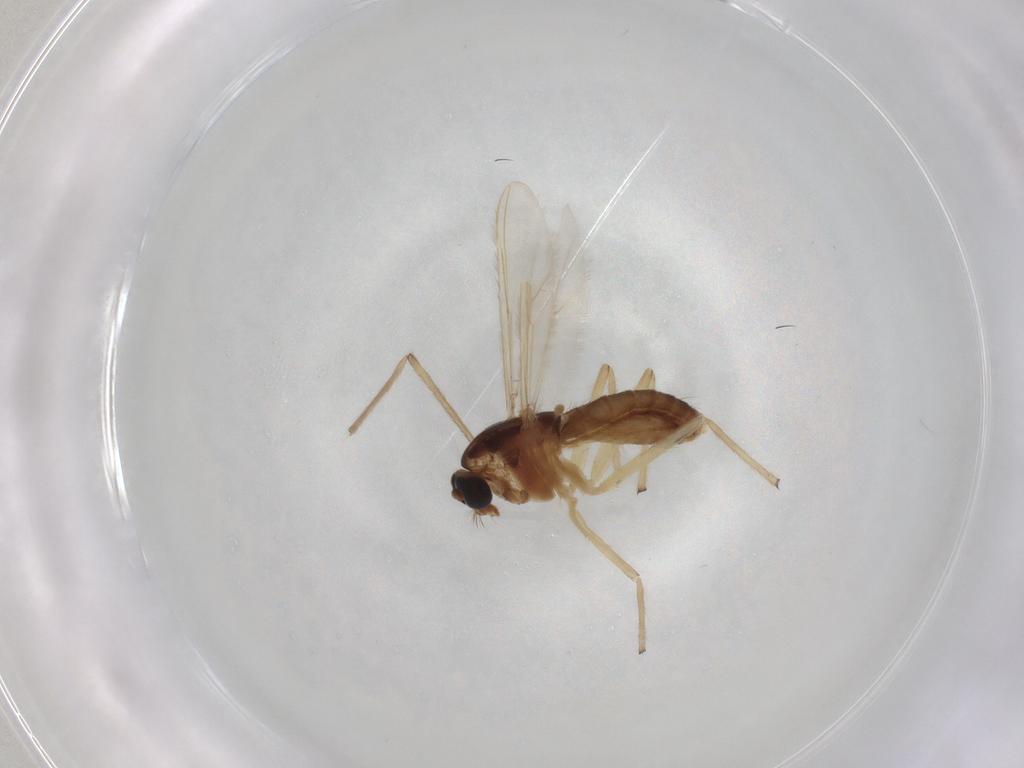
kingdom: Animalia
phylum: Arthropoda
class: Insecta
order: Diptera
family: Chironomidae
